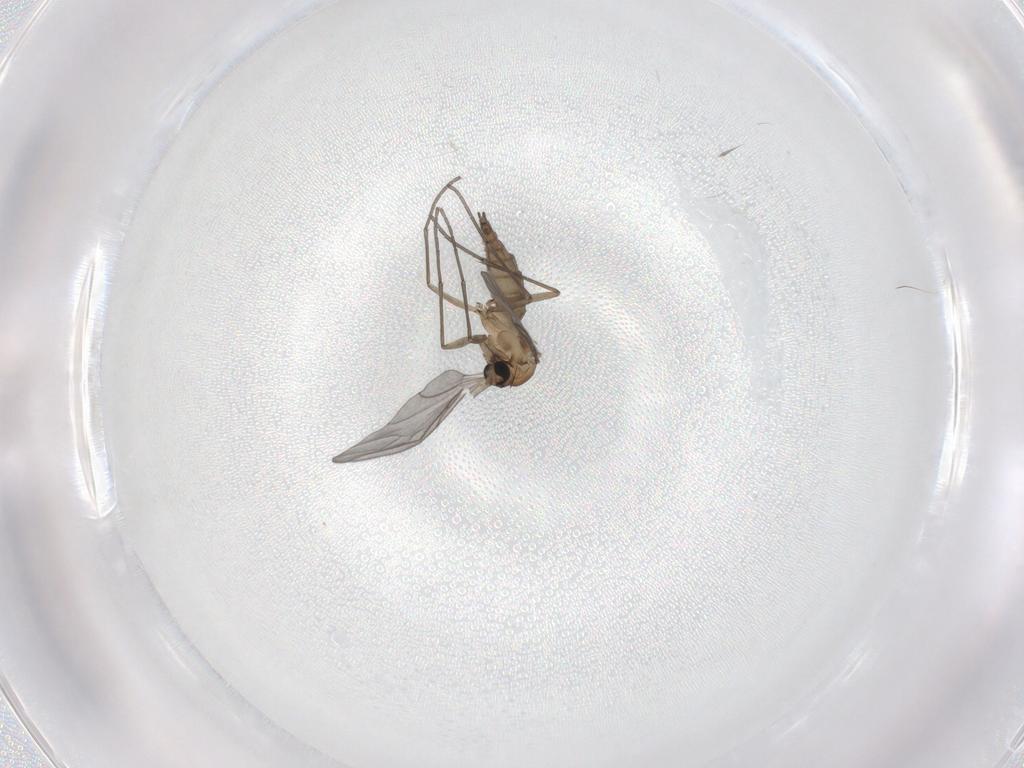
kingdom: Animalia
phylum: Arthropoda
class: Insecta
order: Diptera
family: Sciaridae
